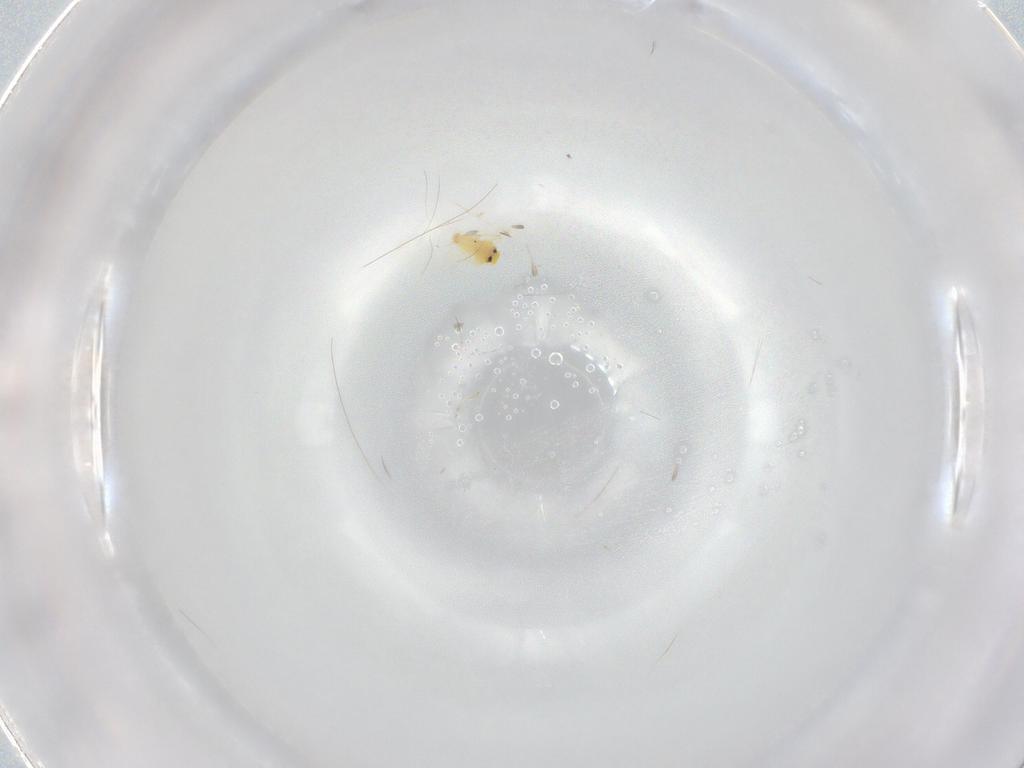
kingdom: Animalia
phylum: Arthropoda
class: Insecta
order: Hemiptera
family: Aleyrodidae
